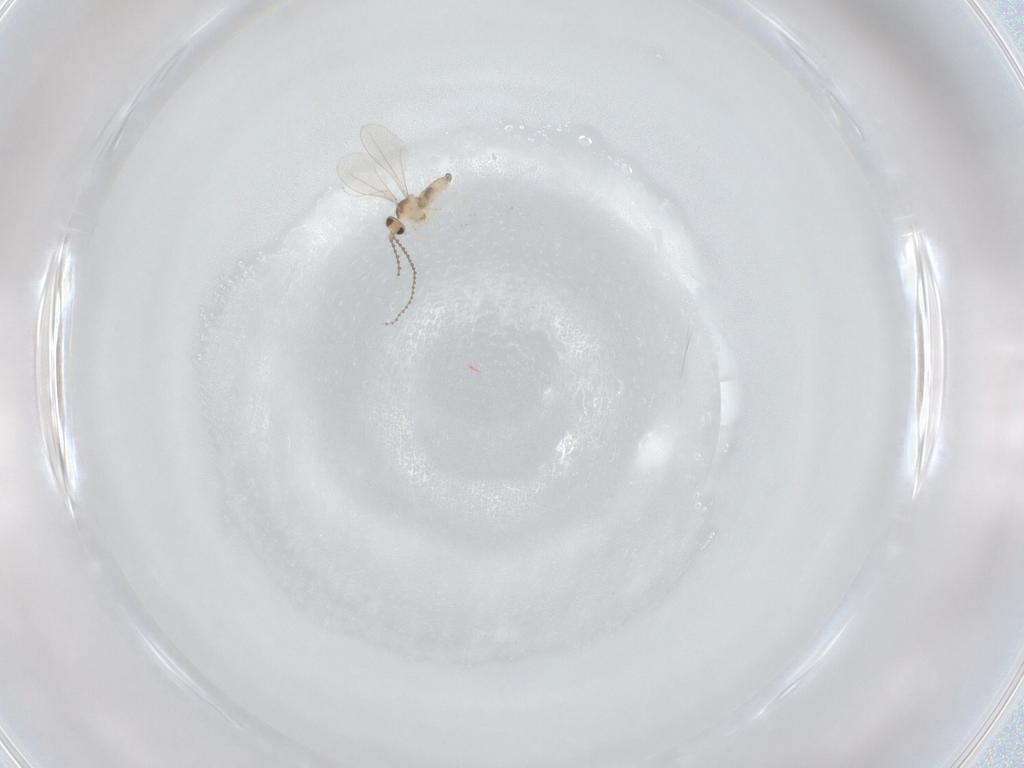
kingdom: Animalia
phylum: Arthropoda
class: Insecta
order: Diptera
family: Cecidomyiidae
